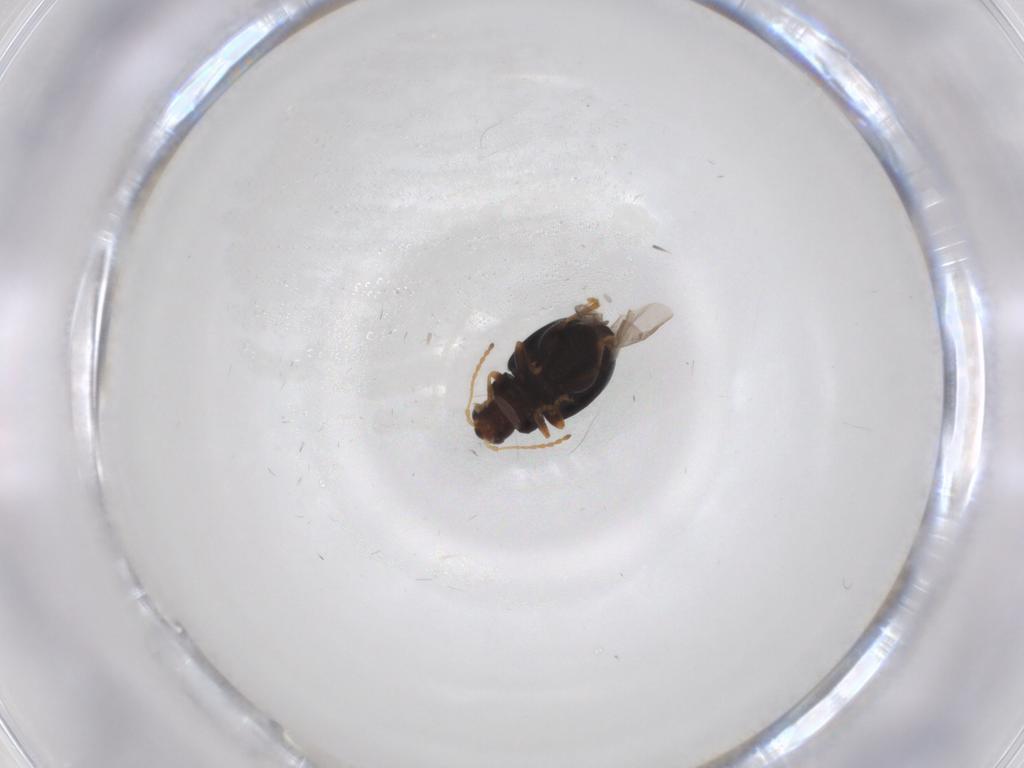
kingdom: Animalia
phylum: Arthropoda
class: Insecta
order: Coleoptera
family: Chrysomelidae
